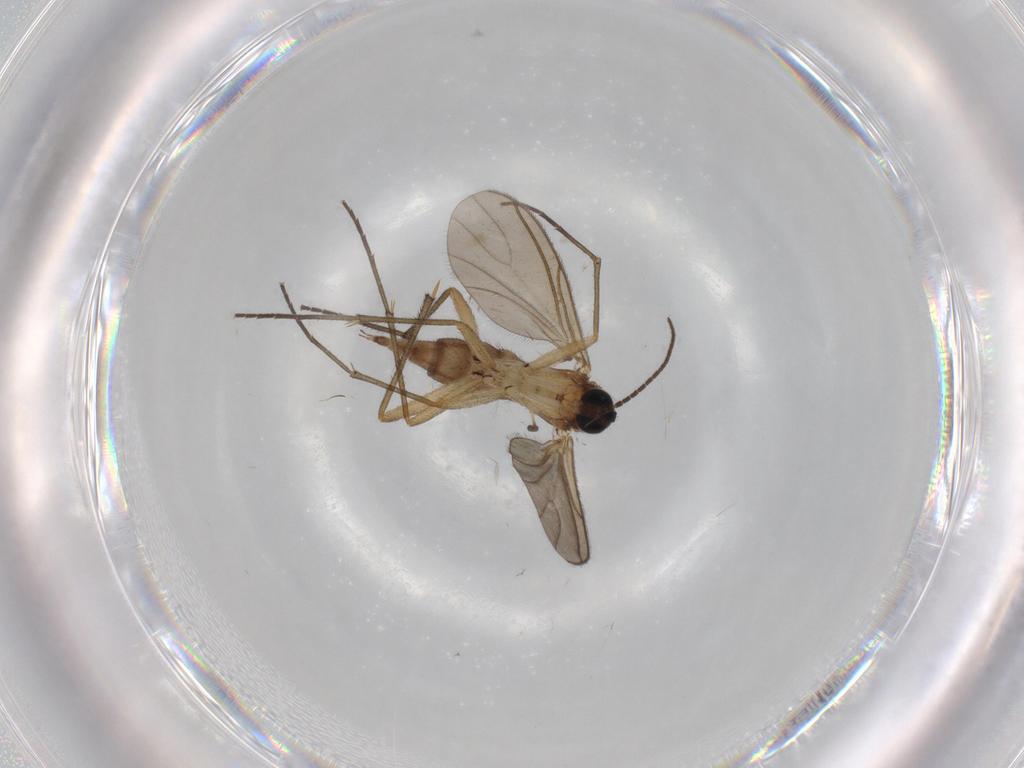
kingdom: Animalia
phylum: Arthropoda
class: Insecta
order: Diptera
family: Cecidomyiidae
